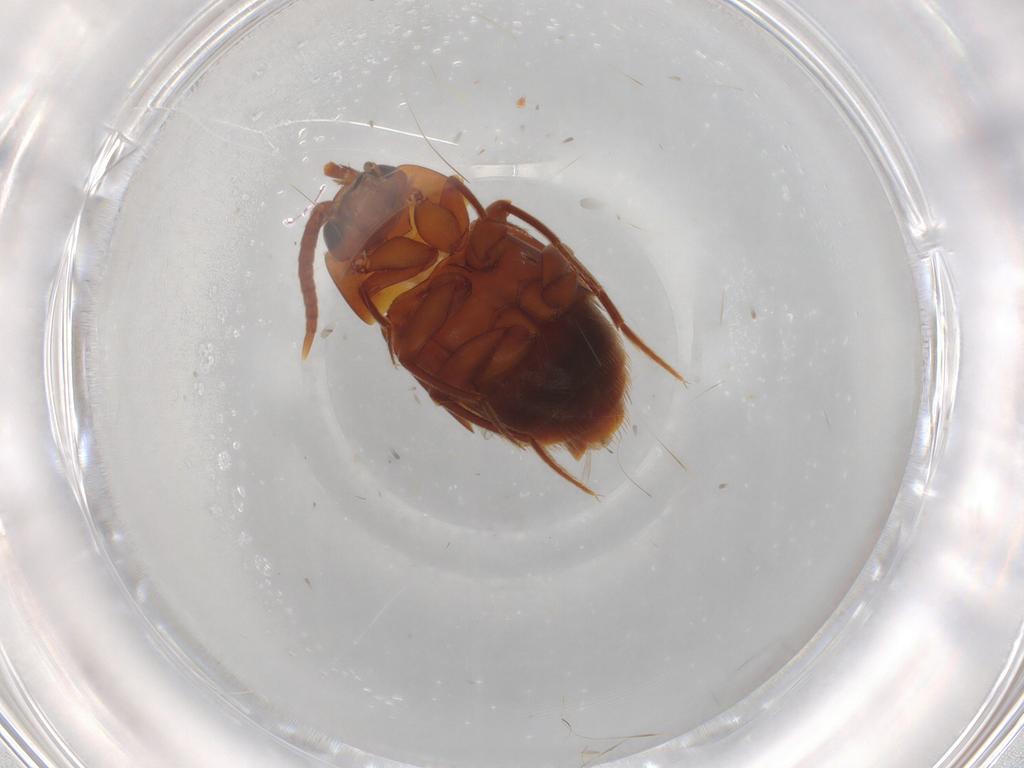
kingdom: Animalia
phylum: Arthropoda
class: Insecta
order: Coleoptera
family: Staphylinidae
